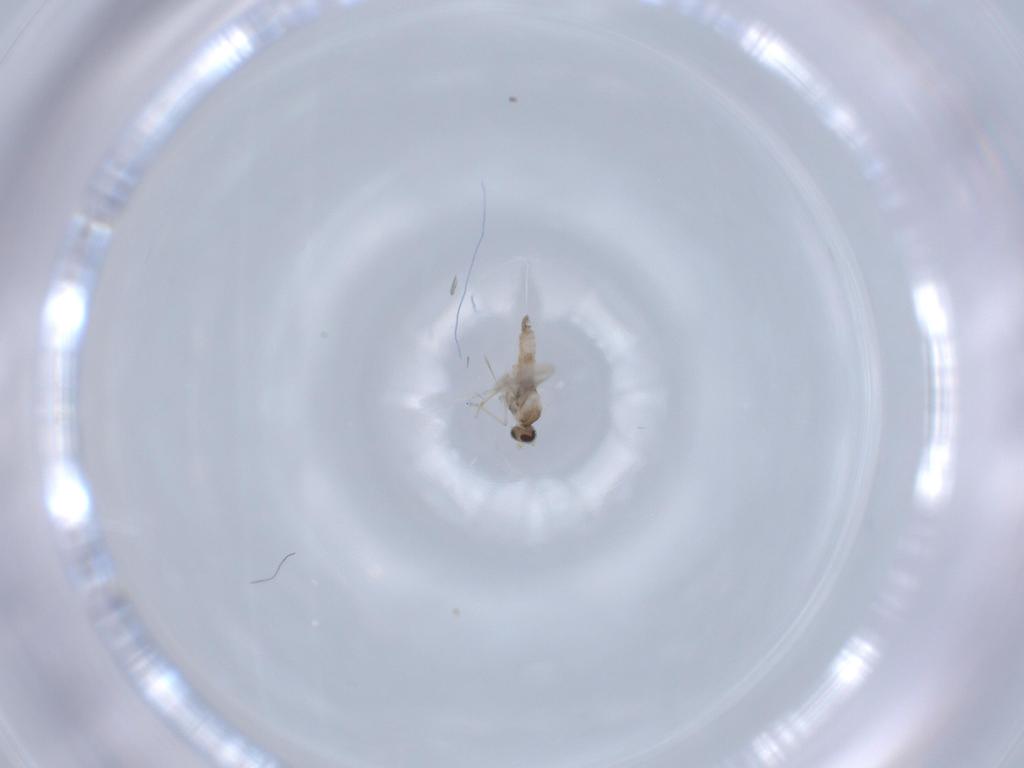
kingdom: Animalia
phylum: Arthropoda
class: Insecta
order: Diptera
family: Cecidomyiidae
